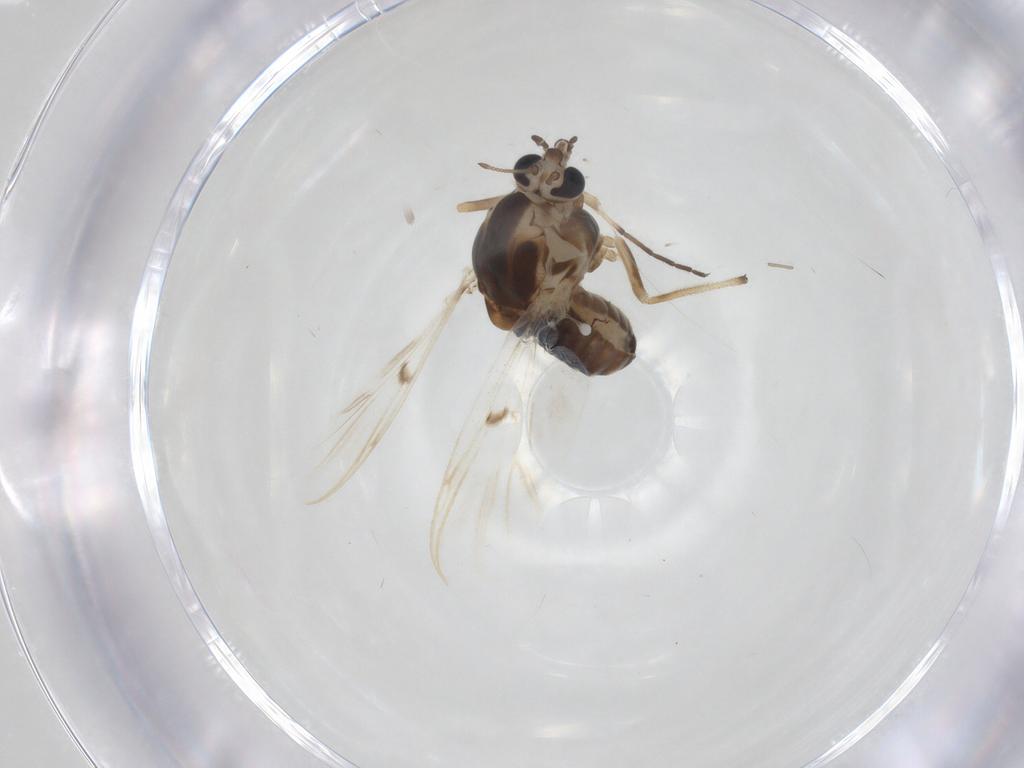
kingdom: Animalia
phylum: Arthropoda
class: Insecta
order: Diptera
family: Chironomidae
